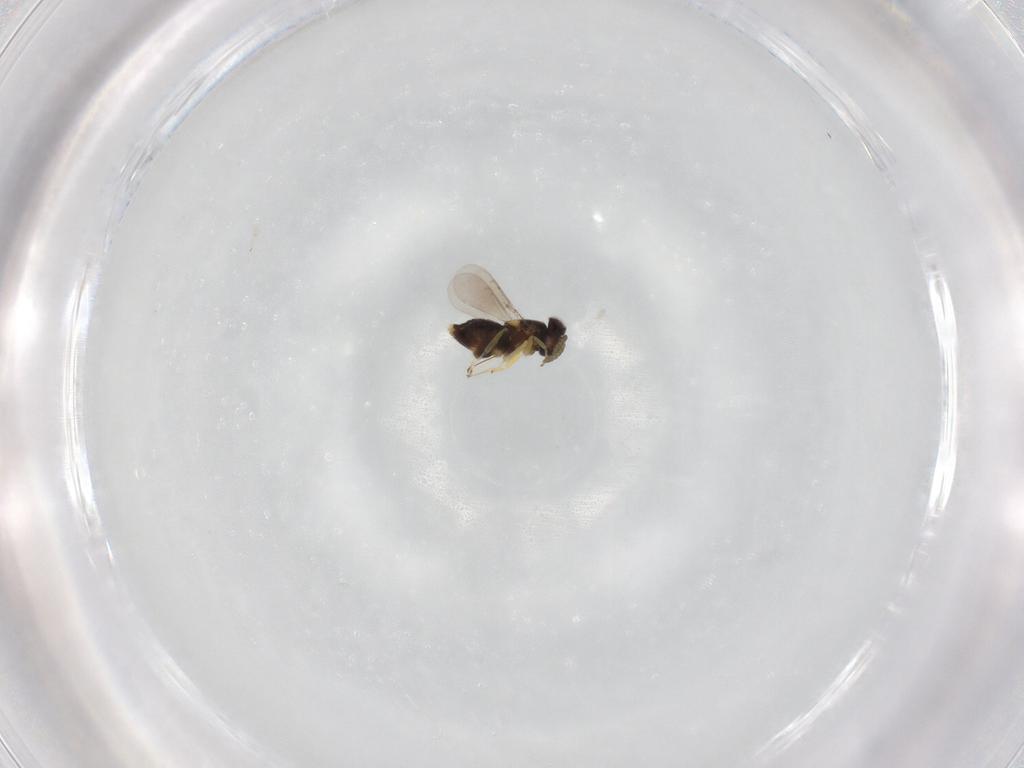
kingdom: Animalia
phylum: Arthropoda
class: Insecta
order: Hymenoptera
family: Aphelinidae
